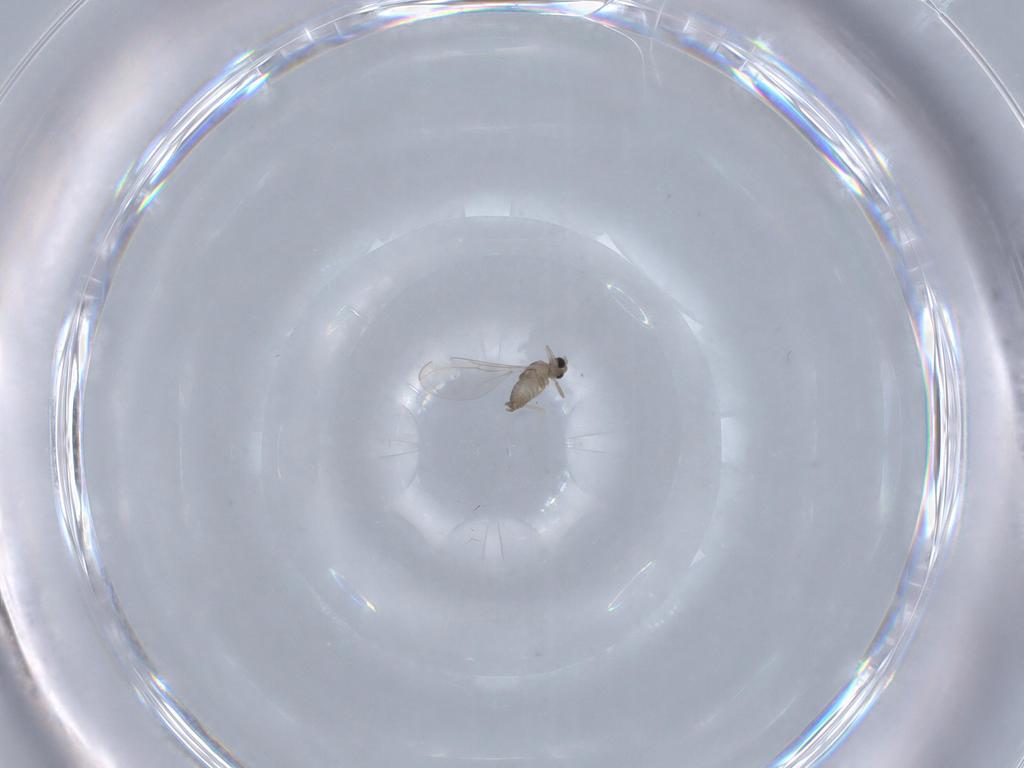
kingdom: Animalia
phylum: Arthropoda
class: Insecta
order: Diptera
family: Cecidomyiidae
